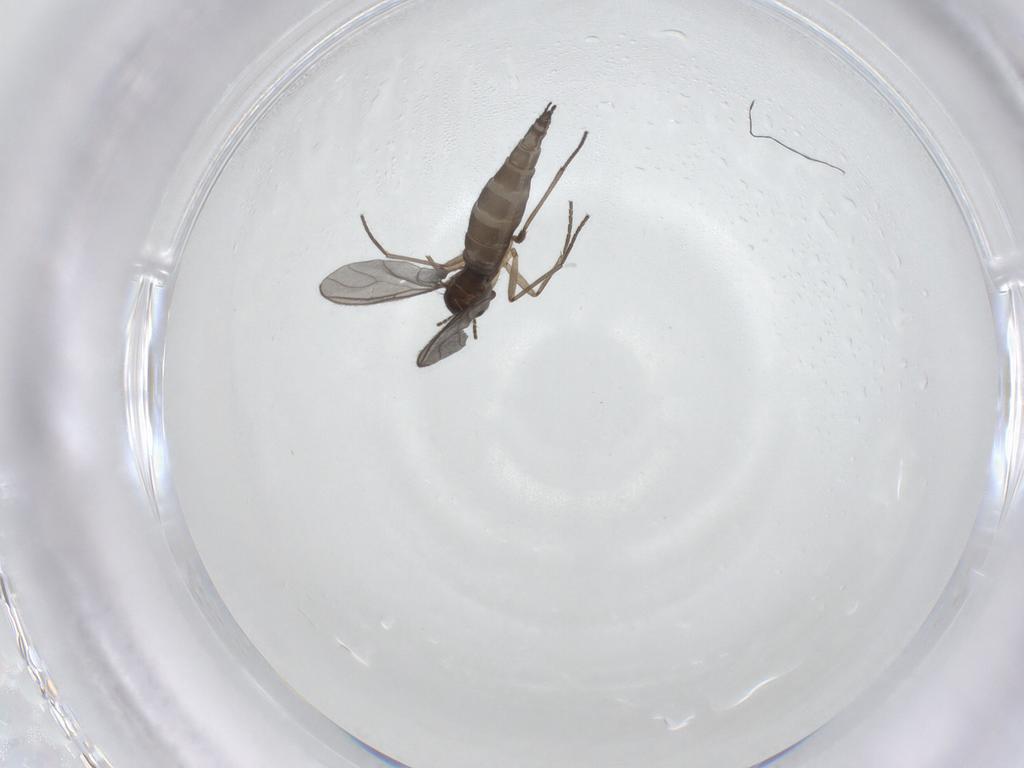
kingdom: Animalia
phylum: Arthropoda
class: Insecta
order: Diptera
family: Sciaridae
